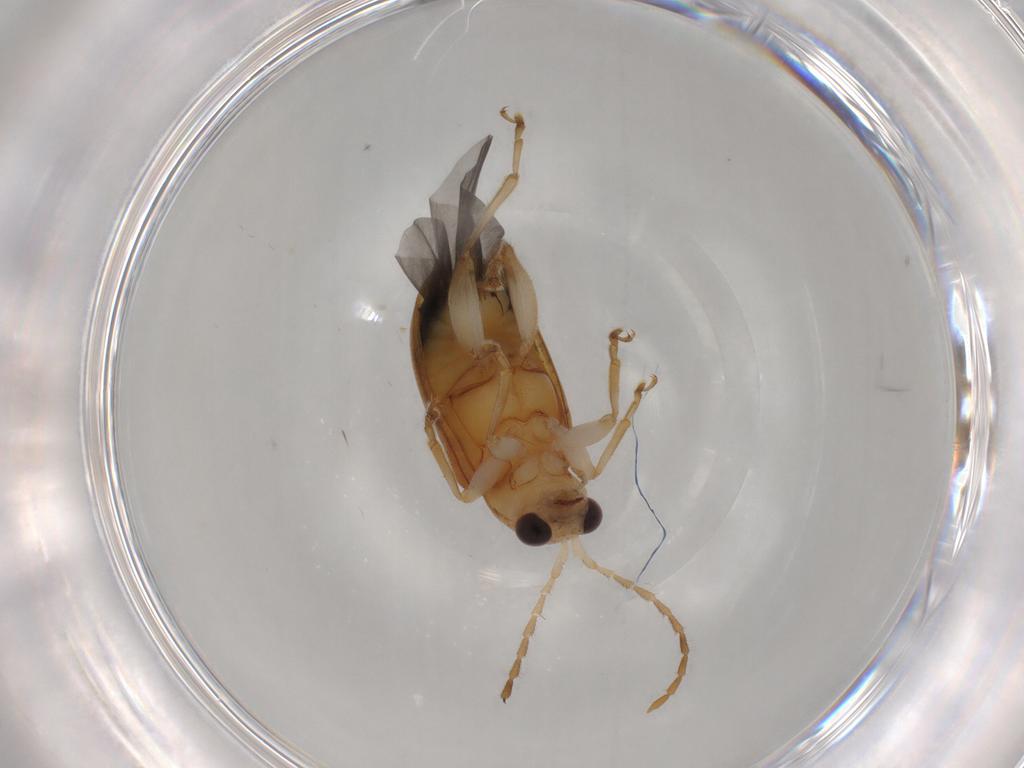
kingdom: Animalia
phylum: Arthropoda
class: Insecta
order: Coleoptera
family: Chrysomelidae
